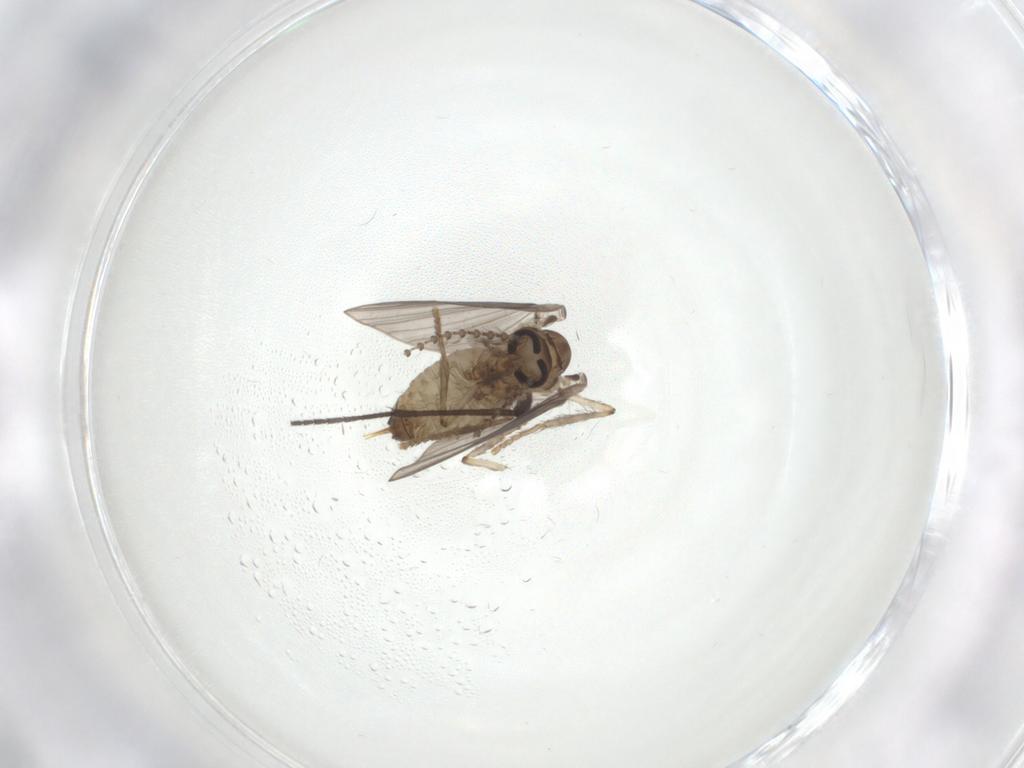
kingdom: Animalia
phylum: Arthropoda
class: Insecta
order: Diptera
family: Psychodidae
